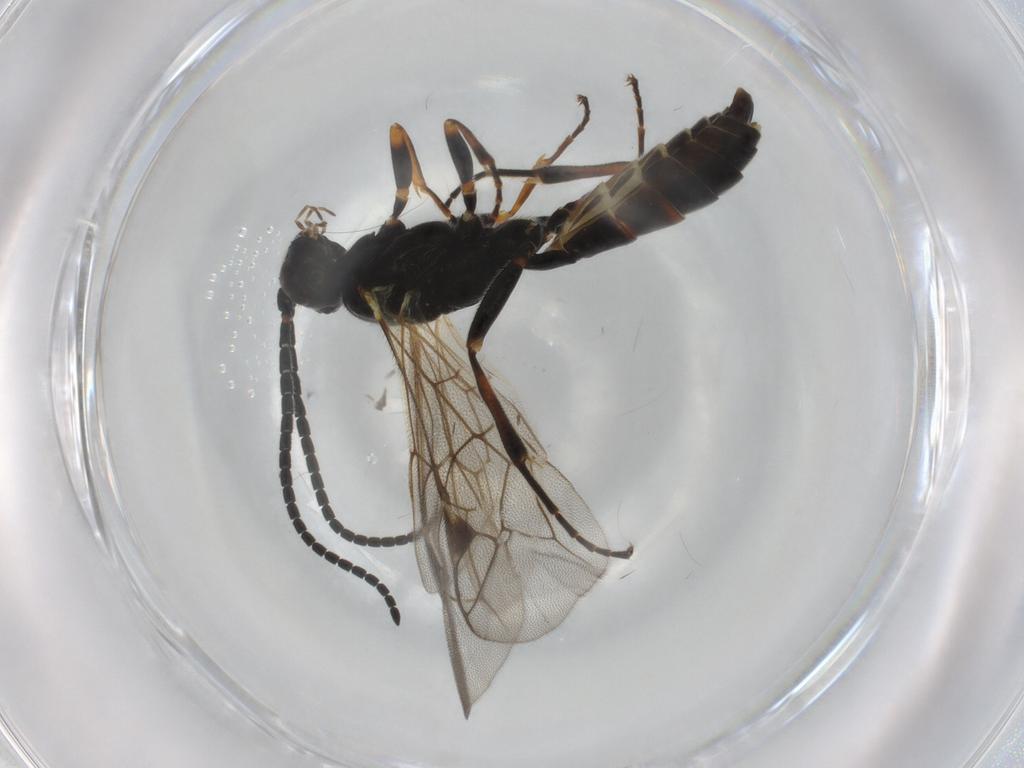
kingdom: Animalia
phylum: Arthropoda
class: Insecta
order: Hymenoptera
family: Ichneumonidae
